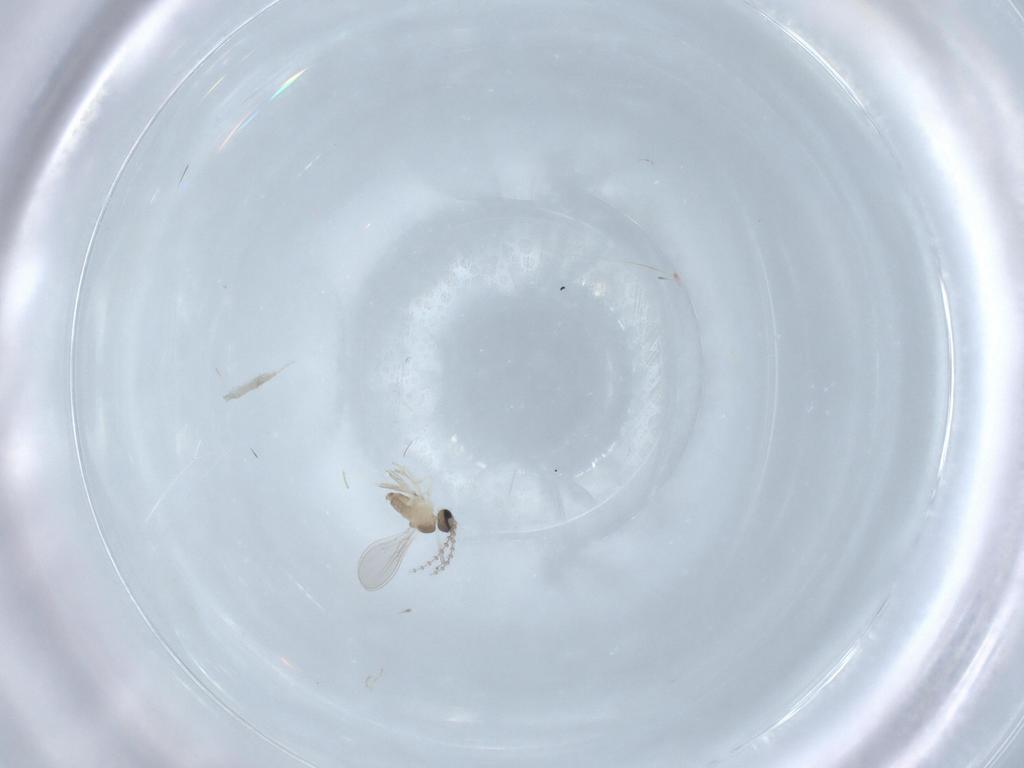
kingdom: Animalia
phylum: Arthropoda
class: Insecta
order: Diptera
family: Cecidomyiidae
